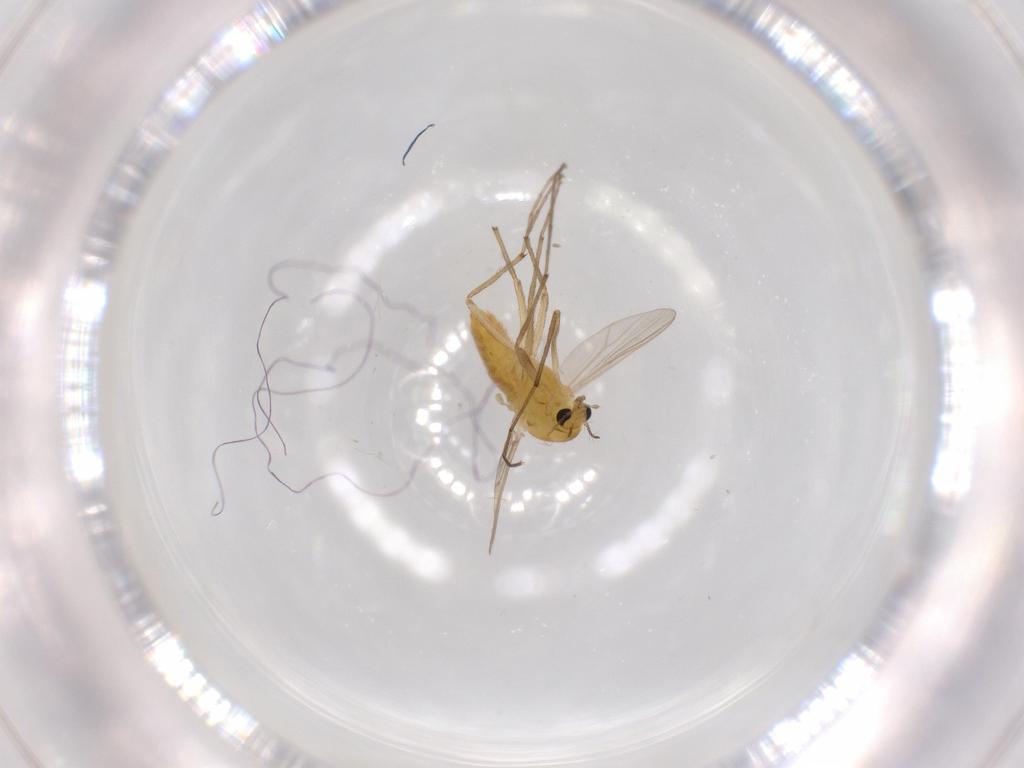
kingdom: Animalia
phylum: Arthropoda
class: Insecta
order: Diptera
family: Chironomidae
